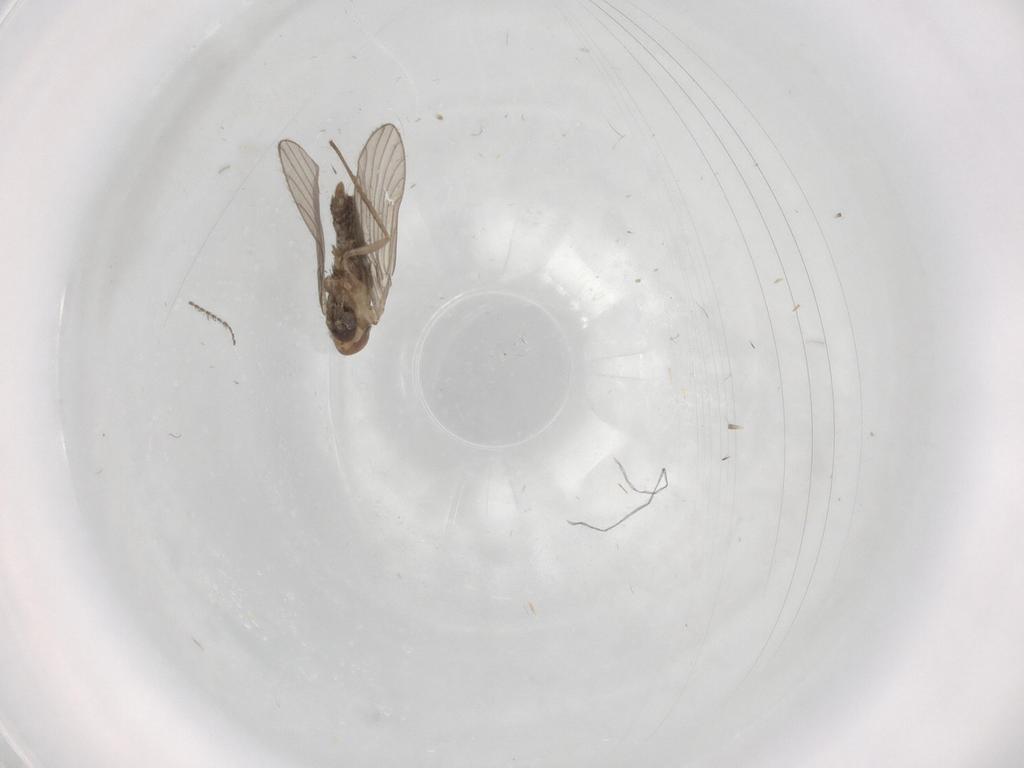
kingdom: Animalia
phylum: Arthropoda
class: Insecta
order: Diptera
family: Psychodidae
